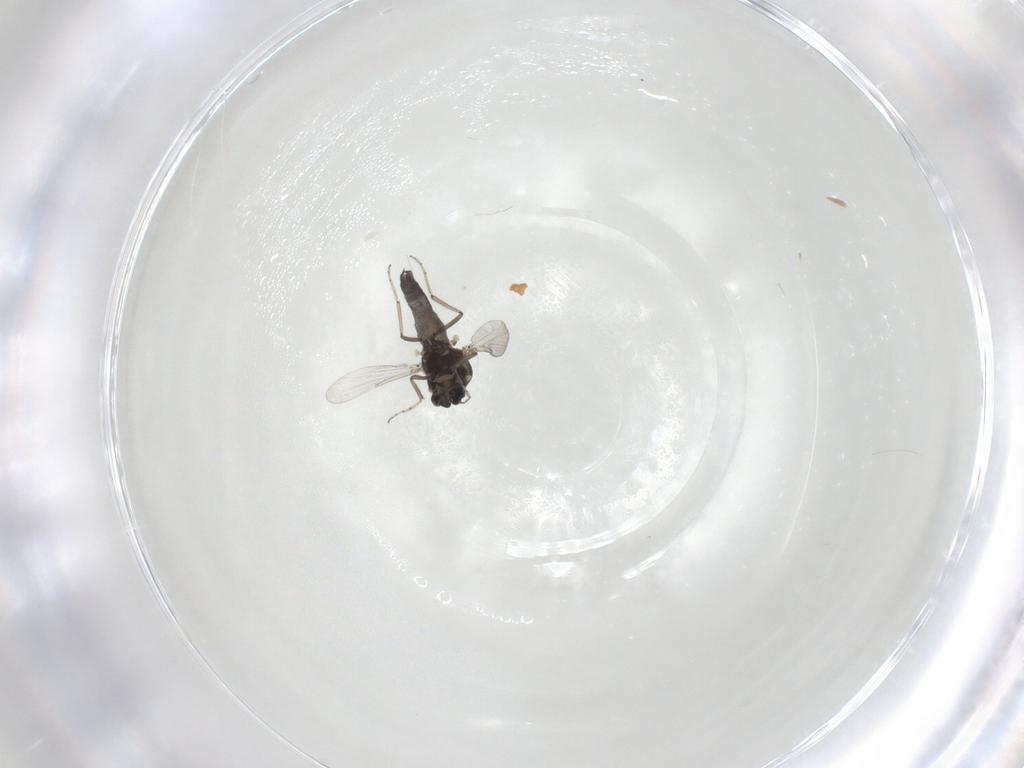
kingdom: Animalia
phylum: Arthropoda
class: Insecta
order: Diptera
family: Ceratopogonidae
